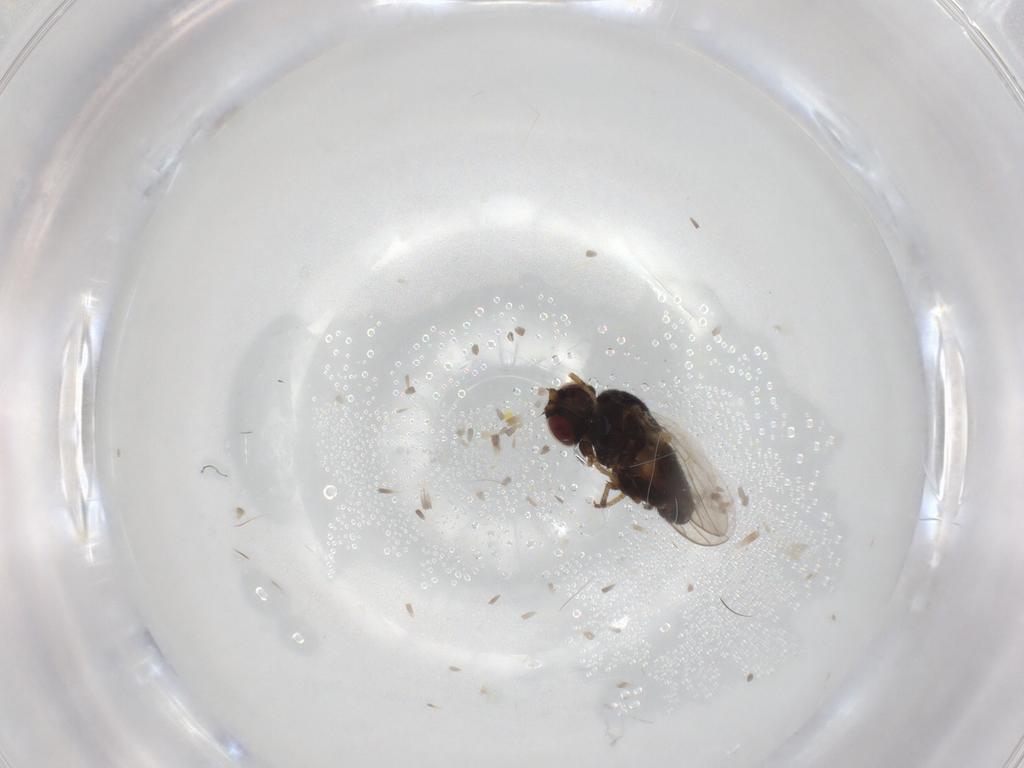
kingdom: Animalia
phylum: Arthropoda
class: Insecta
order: Diptera
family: Chloropidae
